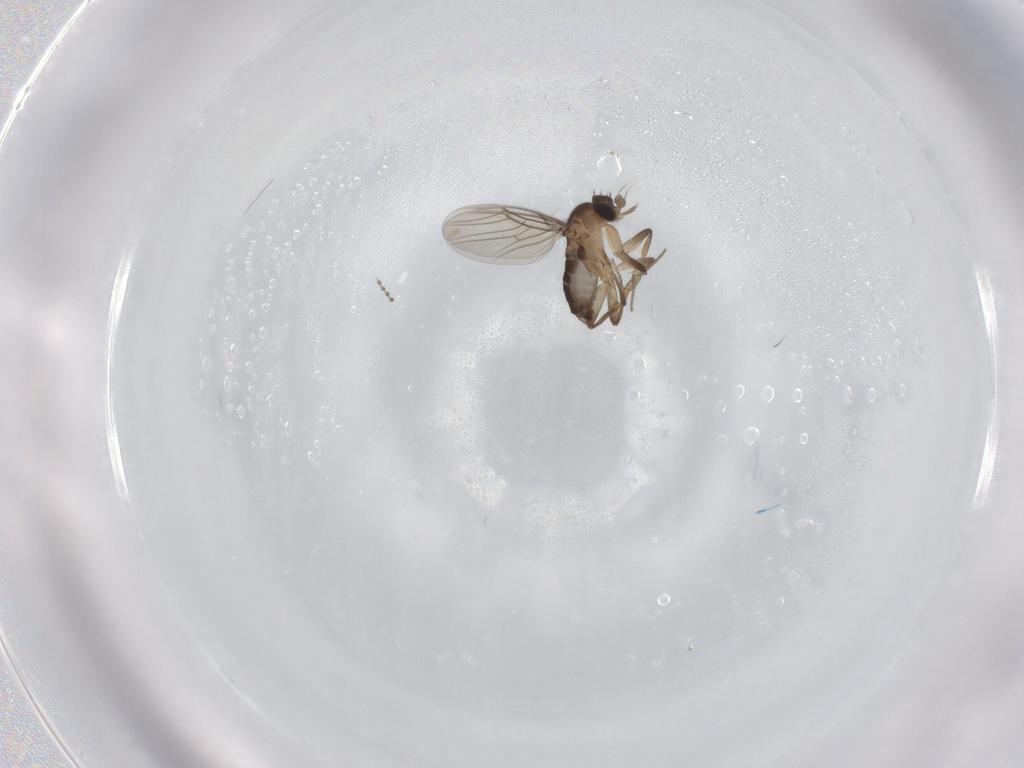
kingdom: Animalia
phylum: Arthropoda
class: Insecta
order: Diptera
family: Phoridae
